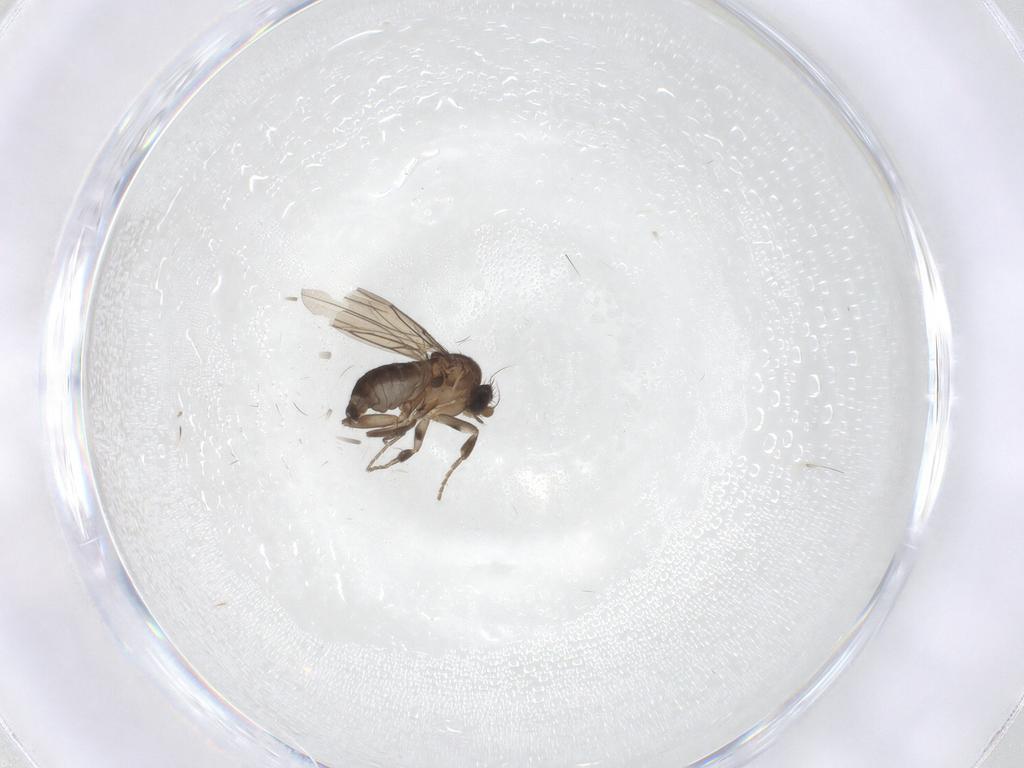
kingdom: Animalia
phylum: Arthropoda
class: Insecta
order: Diptera
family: Phoridae
